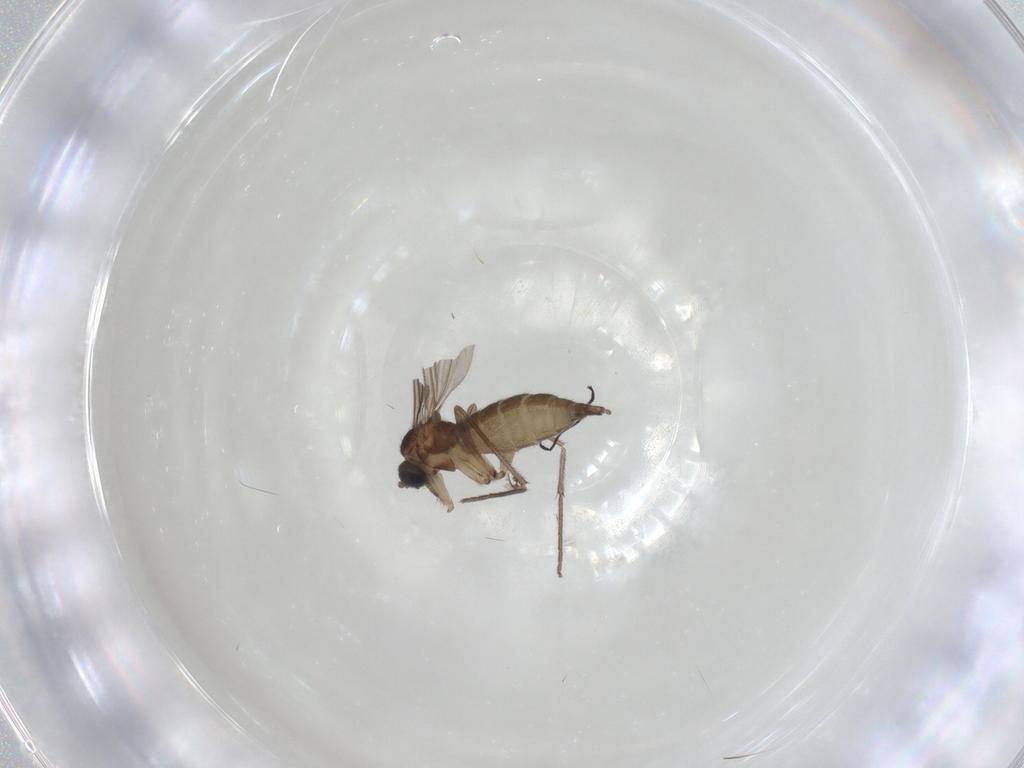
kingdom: Animalia
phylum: Arthropoda
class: Insecta
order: Diptera
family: Sciaridae
